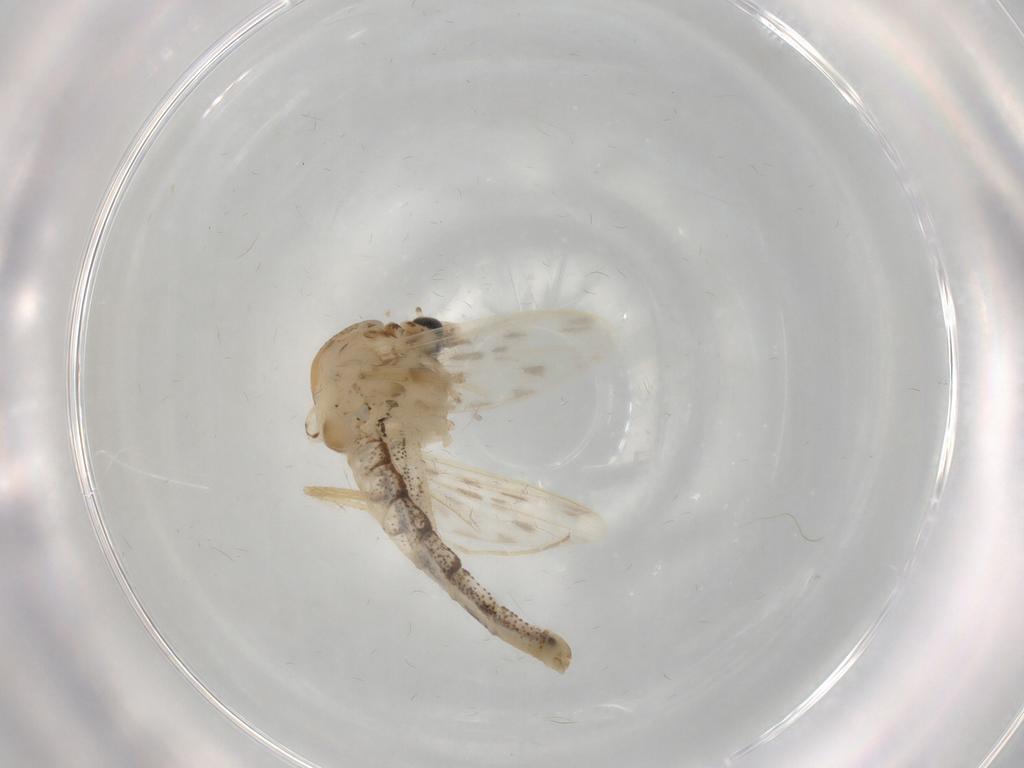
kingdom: Animalia
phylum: Arthropoda
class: Insecta
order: Diptera
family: Chaoboridae
